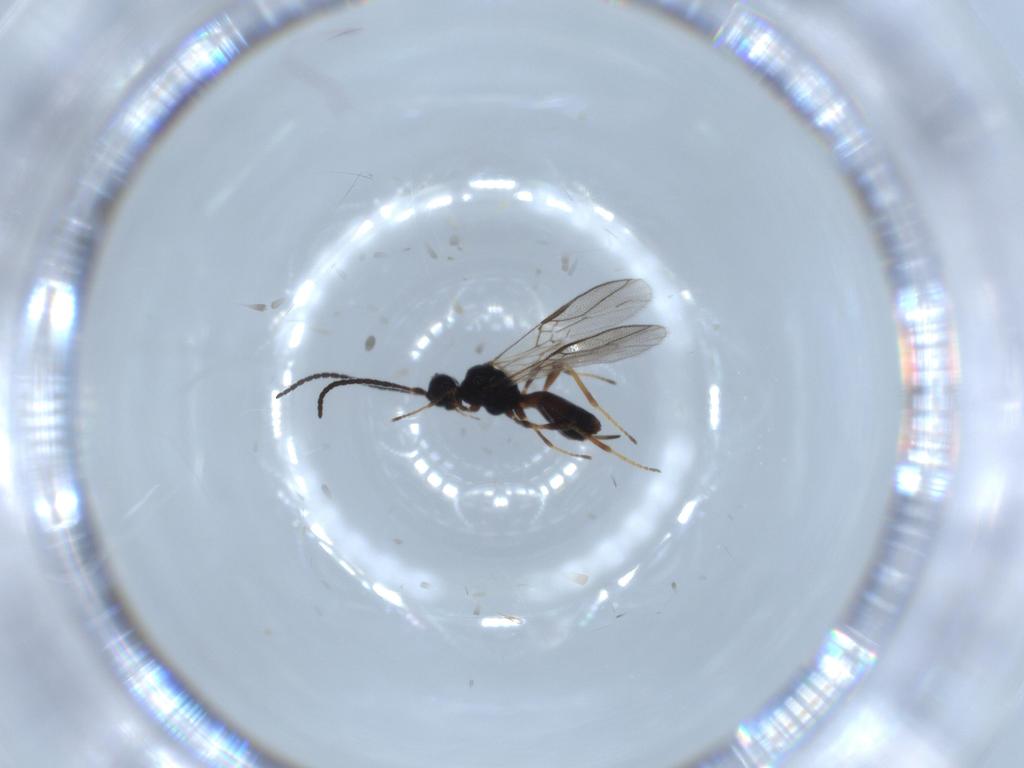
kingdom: Animalia
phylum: Arthropoda
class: Insecta
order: Hymenoptera
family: Braconidae
